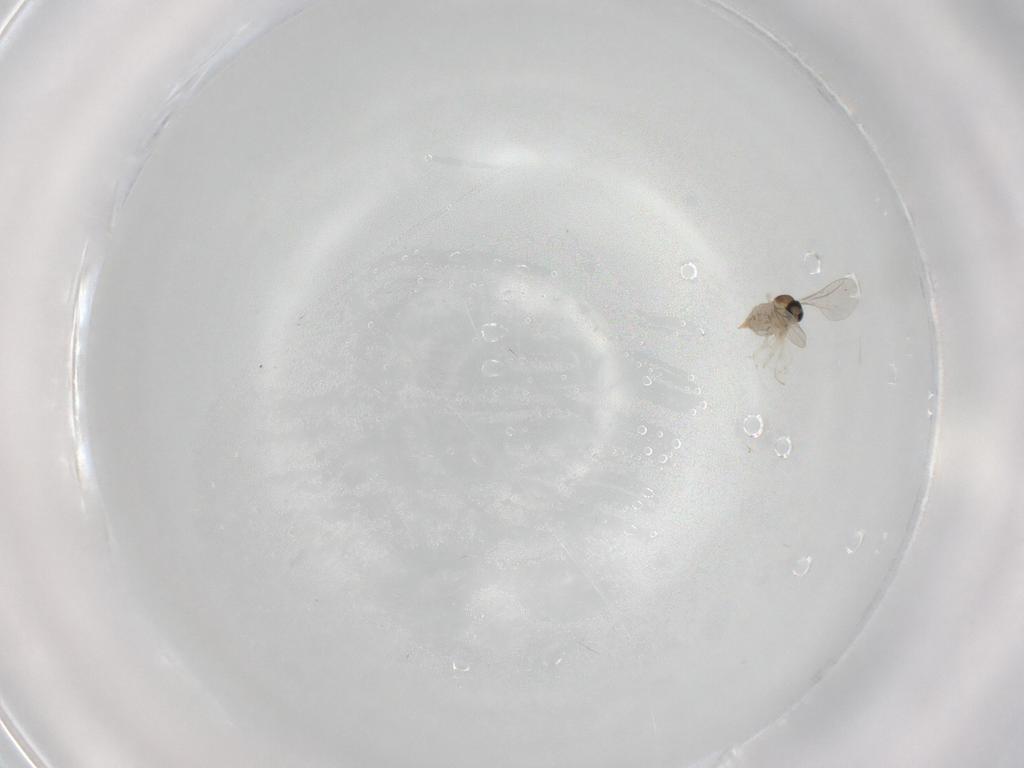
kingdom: Animalia
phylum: Arthropoda
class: Insecta
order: Diptera
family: Cecidomyiidae
